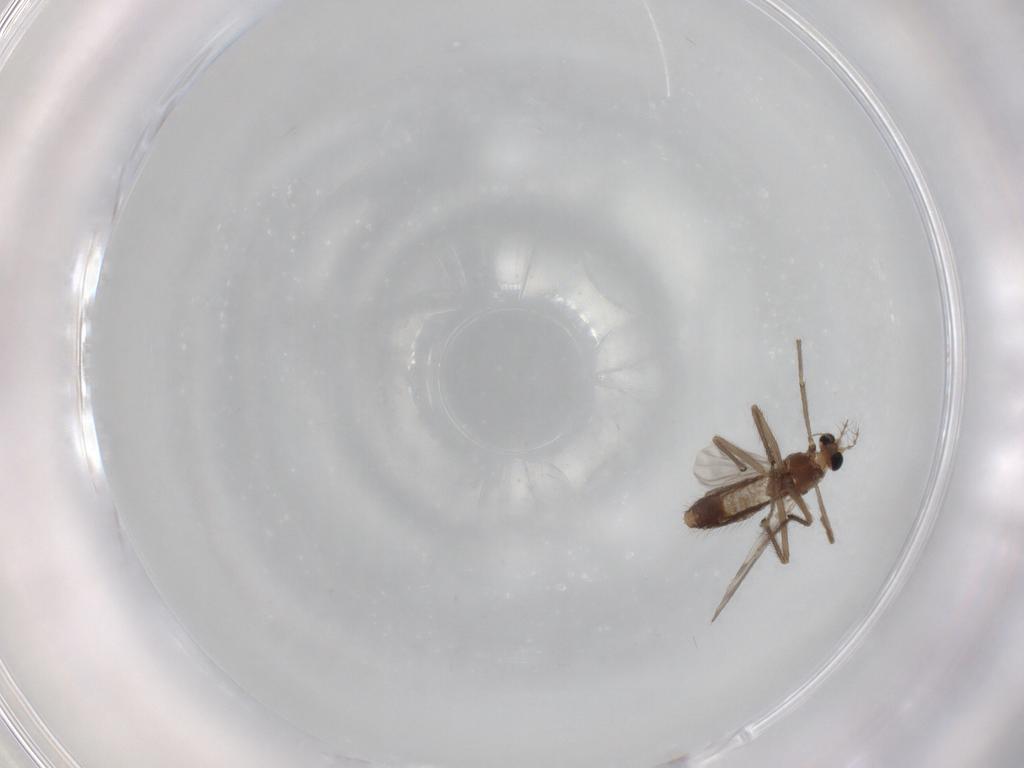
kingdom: Animalia
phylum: Arthropoda
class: Insecta
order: Diptera
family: Chironomidae
